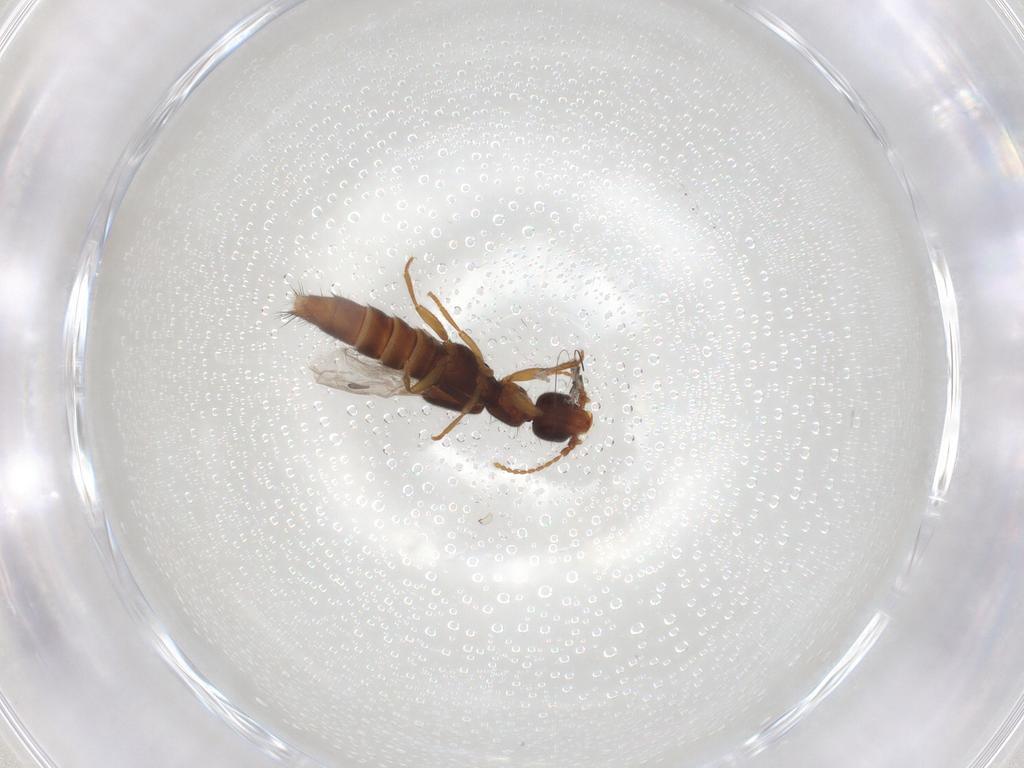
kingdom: Animalia
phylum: Arthropoda
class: Insecta
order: Coleoptera
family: Staphylinidae
